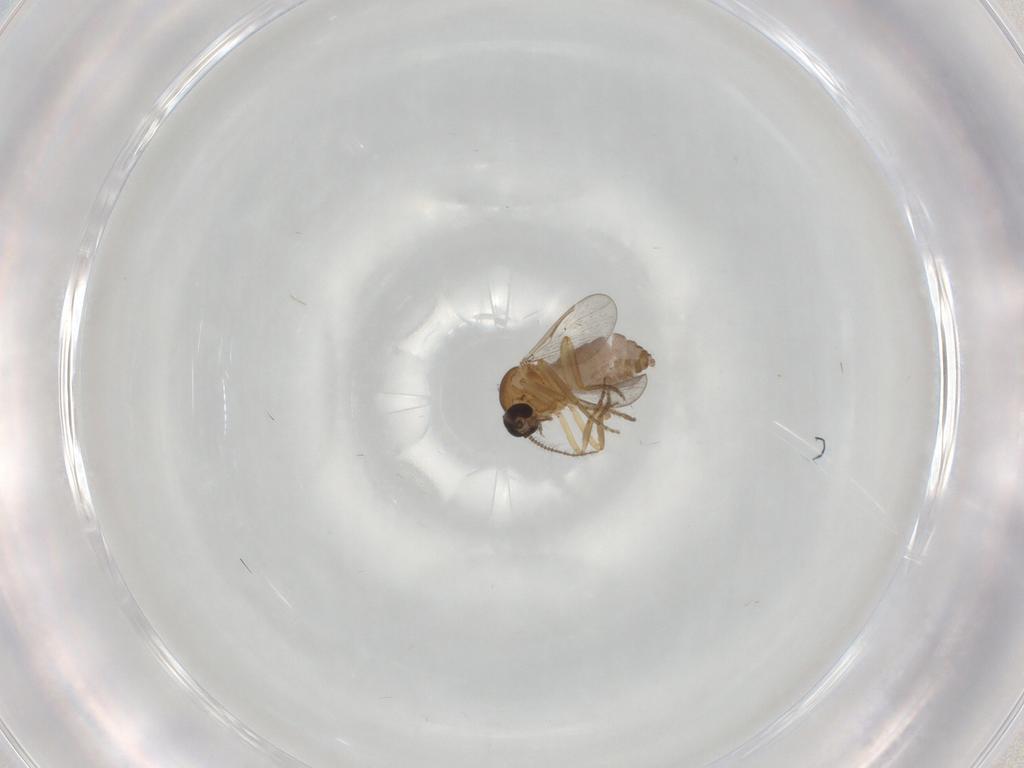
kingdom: Animalia
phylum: Arthropoda
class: Insecta
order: Diptera
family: Ceratopogonidae
